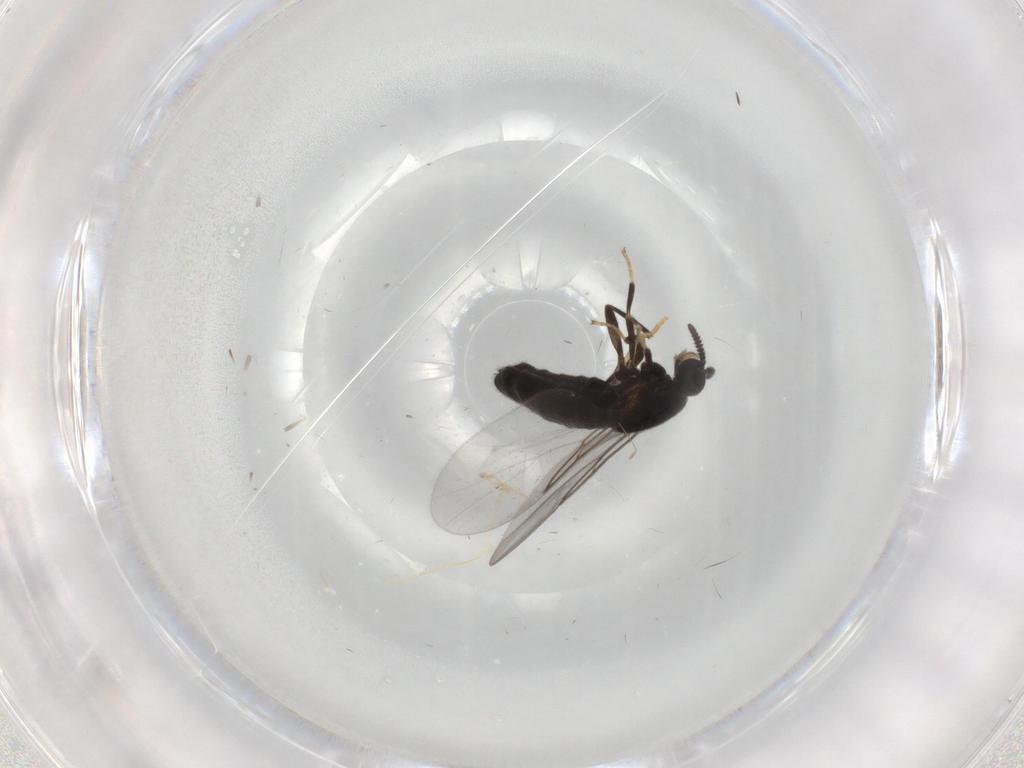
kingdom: Animalia
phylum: Arthropoda
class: Insecta
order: Diptera
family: Scatopsidae
